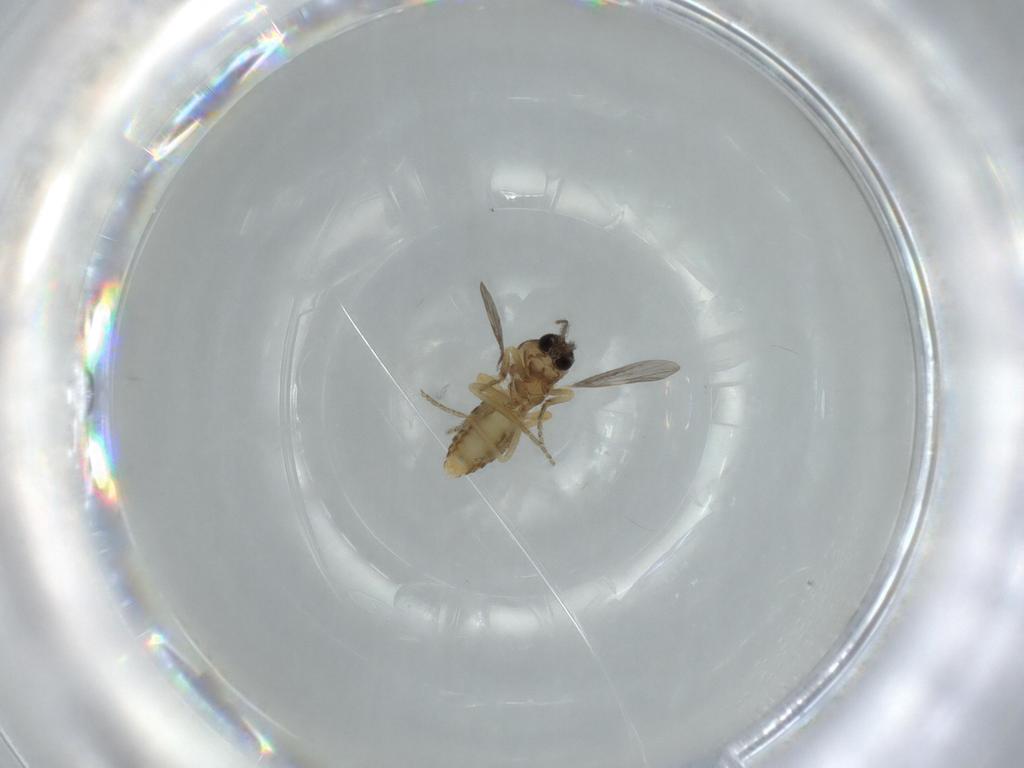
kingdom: Animalia
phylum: Arthropoda
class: Insecta
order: Diptera
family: Ceratopogonidae
